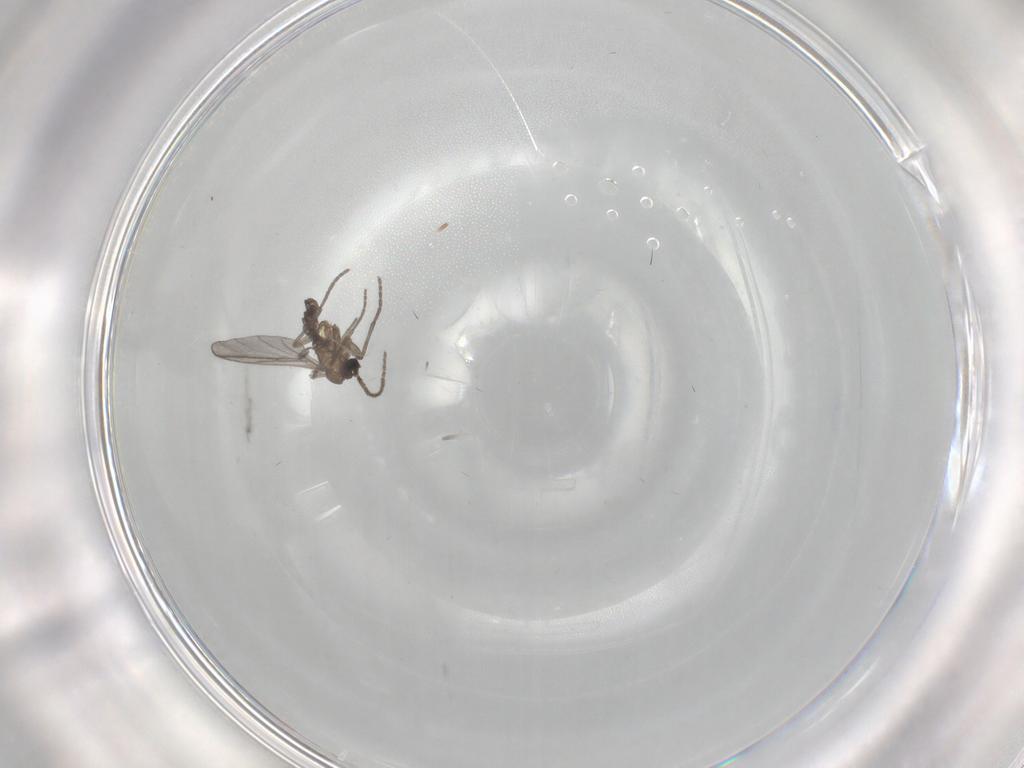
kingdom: Animalia
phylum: Arthropoda
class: Insecta
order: Diptera
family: Sciaridae
